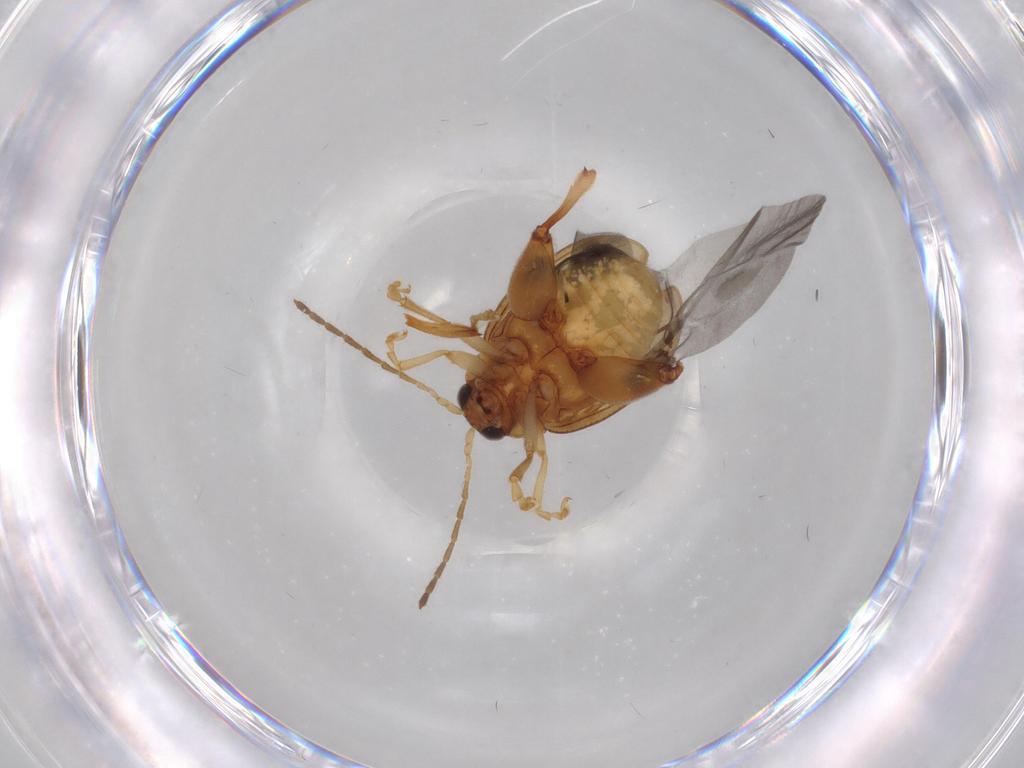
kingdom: Animalia
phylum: Arthropoda
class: Insecta
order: Coleoptera
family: Chrysomelidae
